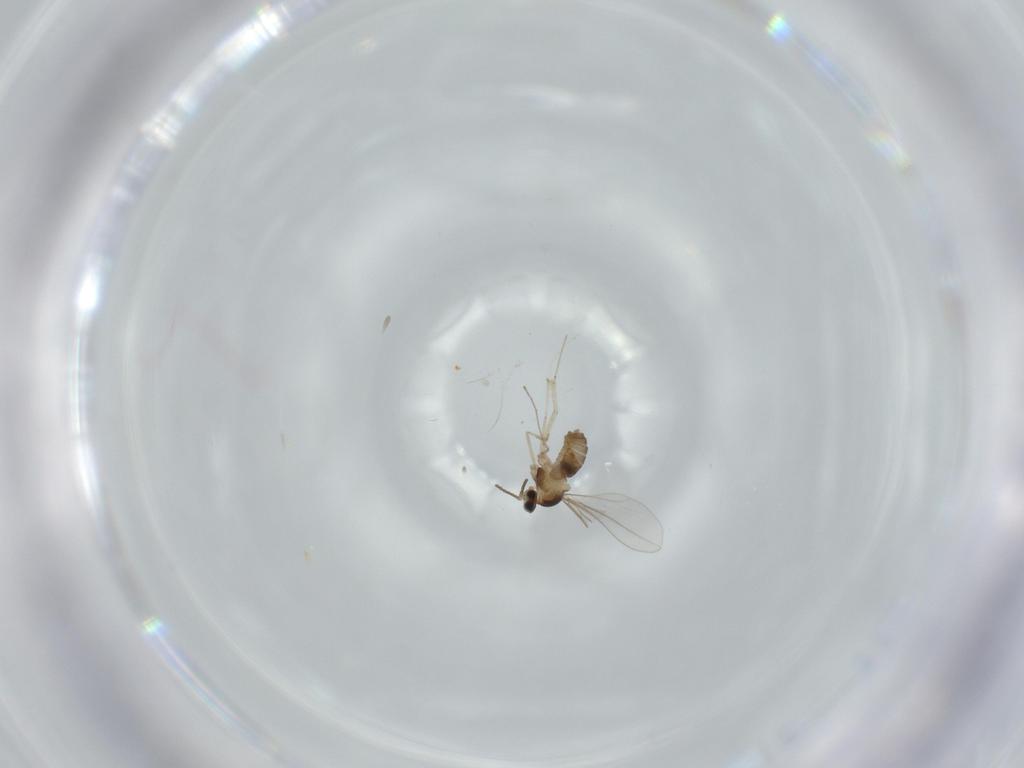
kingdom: Animalia
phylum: Arthropoda
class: Insecta
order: Diptera
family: Cecidomyiidae
